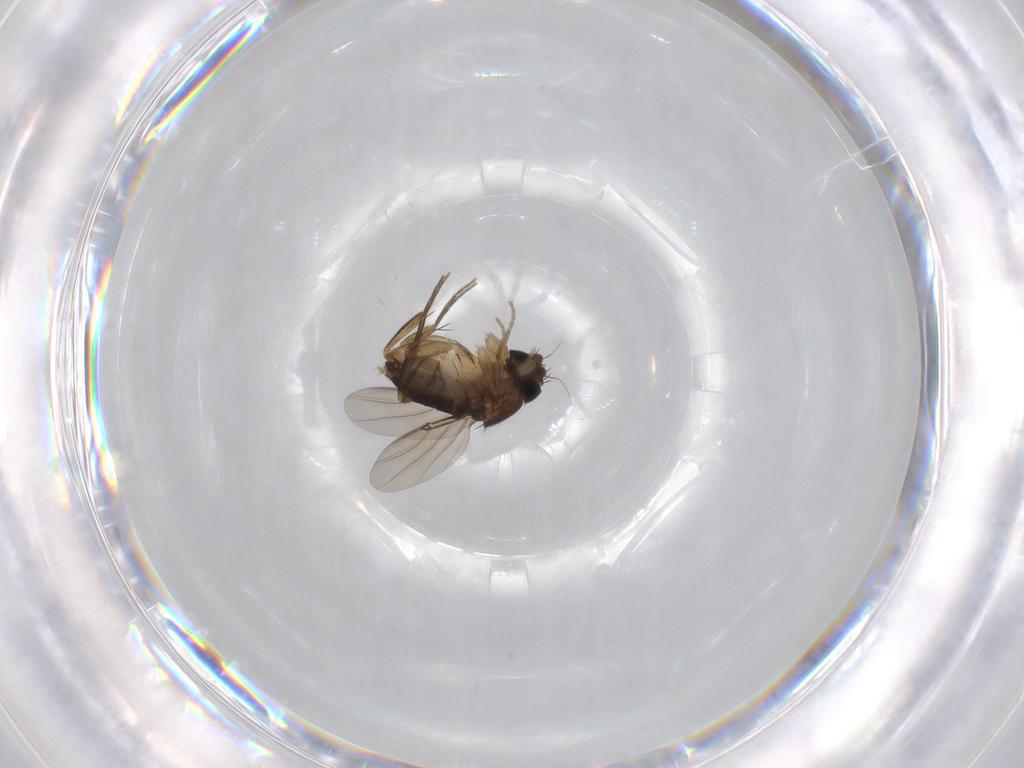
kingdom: Animalia
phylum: Arthropoda
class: Insecta
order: Diptera
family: Phoridae
